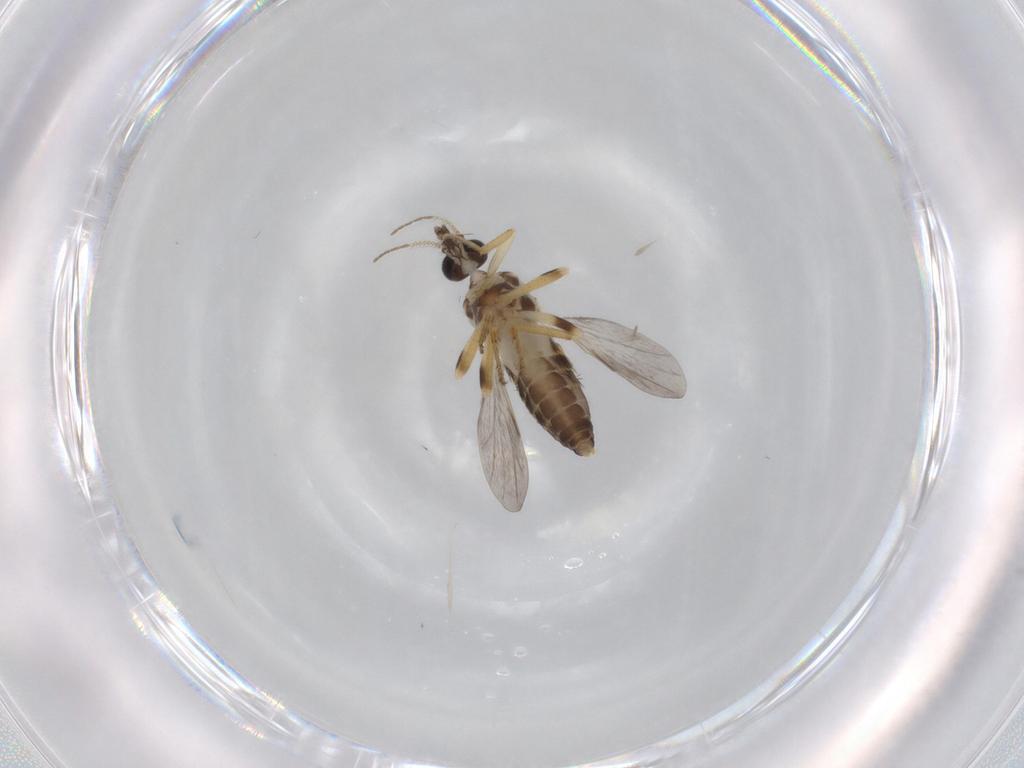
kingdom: Animalia
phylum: Arthropoda
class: Insecta
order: Diptera
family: Ceratopogonidae
